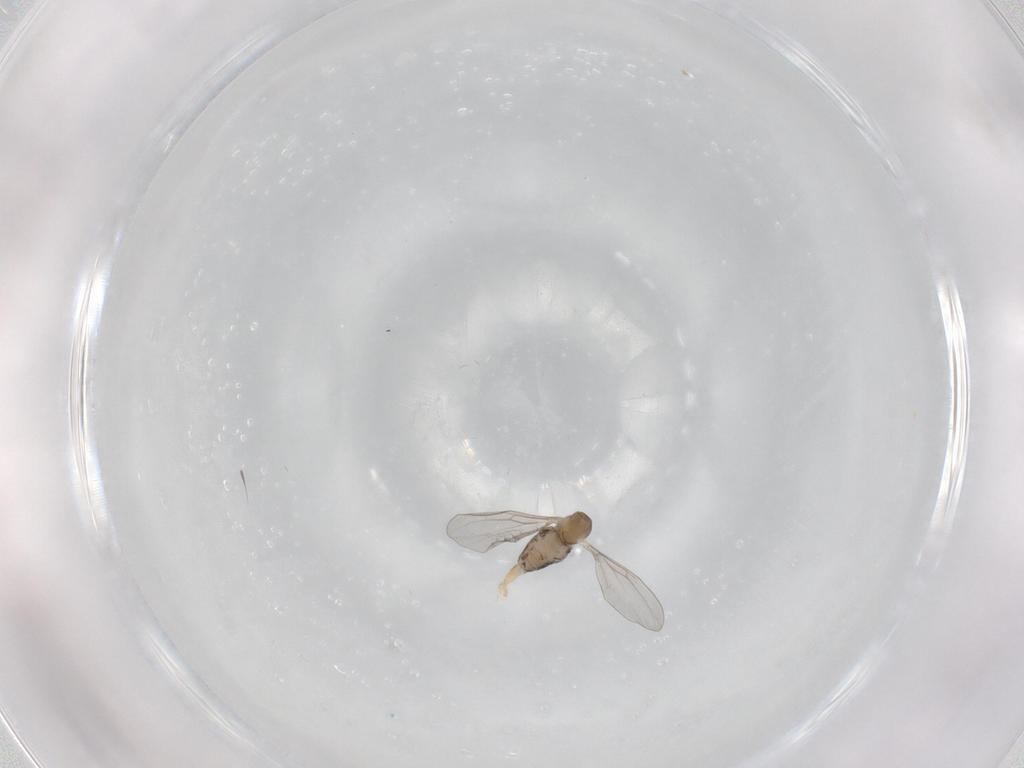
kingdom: Animalia
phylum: Arthropoda
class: Insecta
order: Diptera
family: Cecidomyiidae
